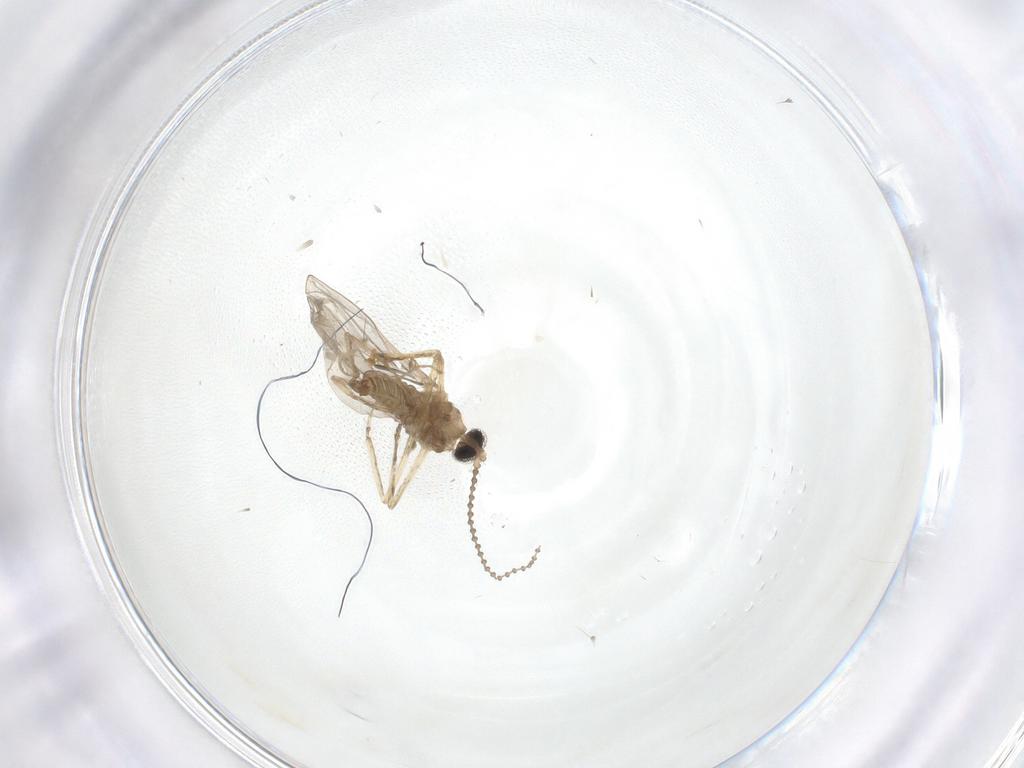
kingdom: Animalia
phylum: Arthropoda
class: Insecta
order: Diptera
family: Cecidomyiidae
